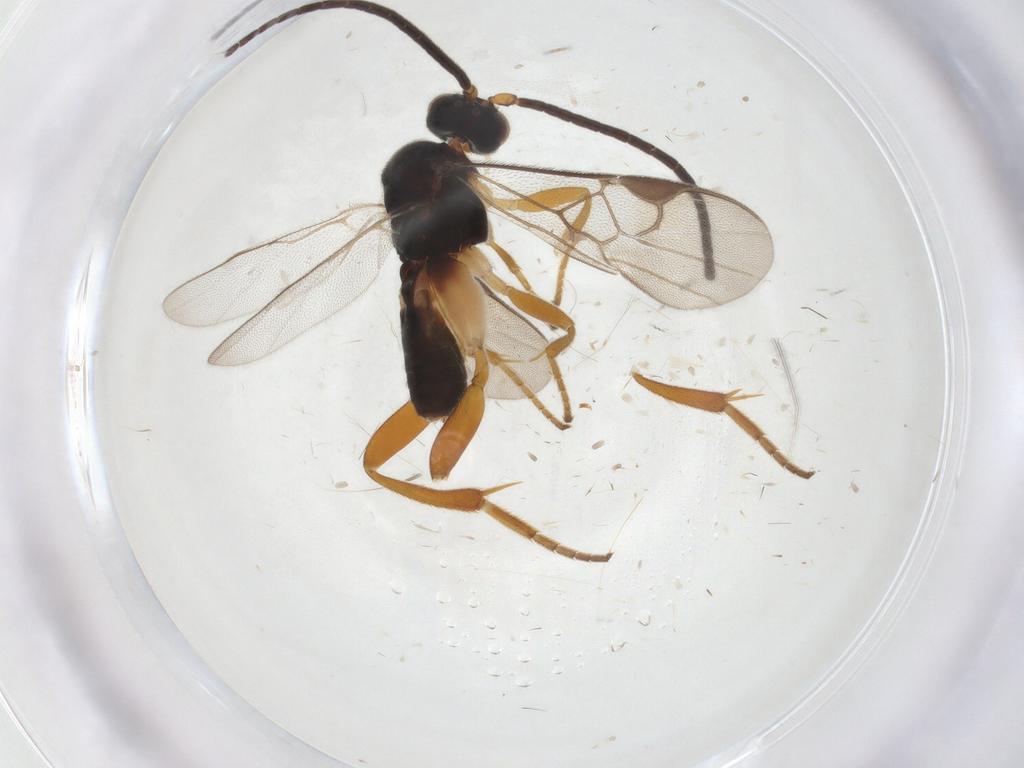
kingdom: Animalia
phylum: Arthropoda
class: Insecta
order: Hymenoptera
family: Braconidae
